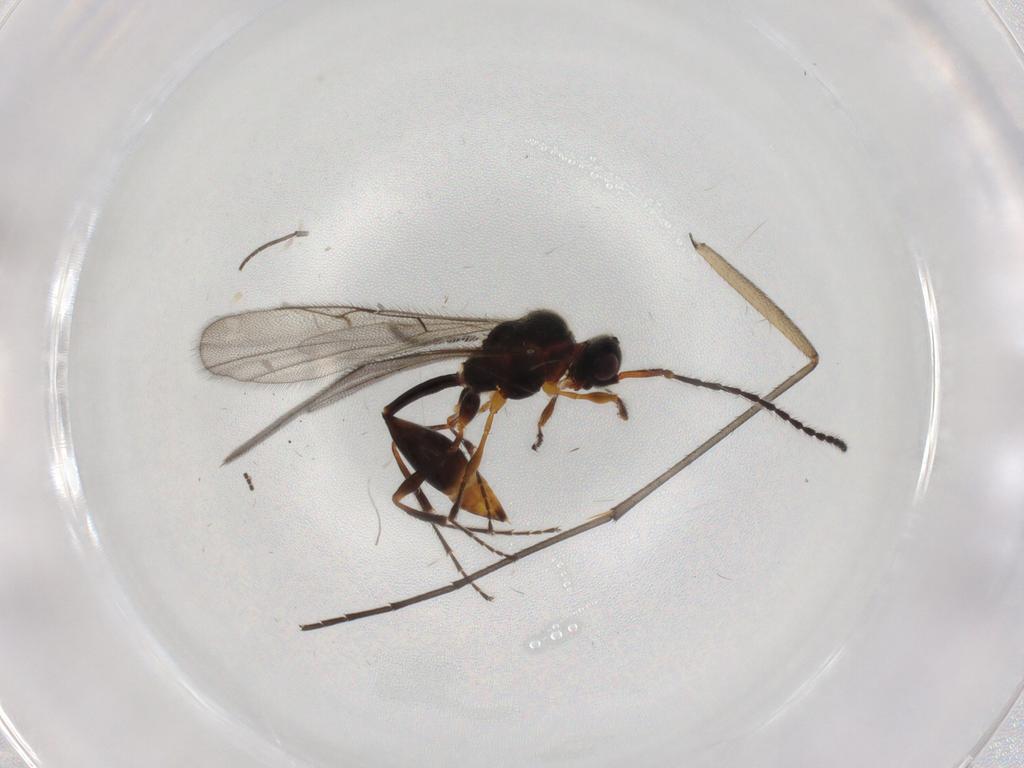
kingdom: Animalia
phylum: Arthropoda
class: Insecta
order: Hymenoptera
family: Diapriidae
